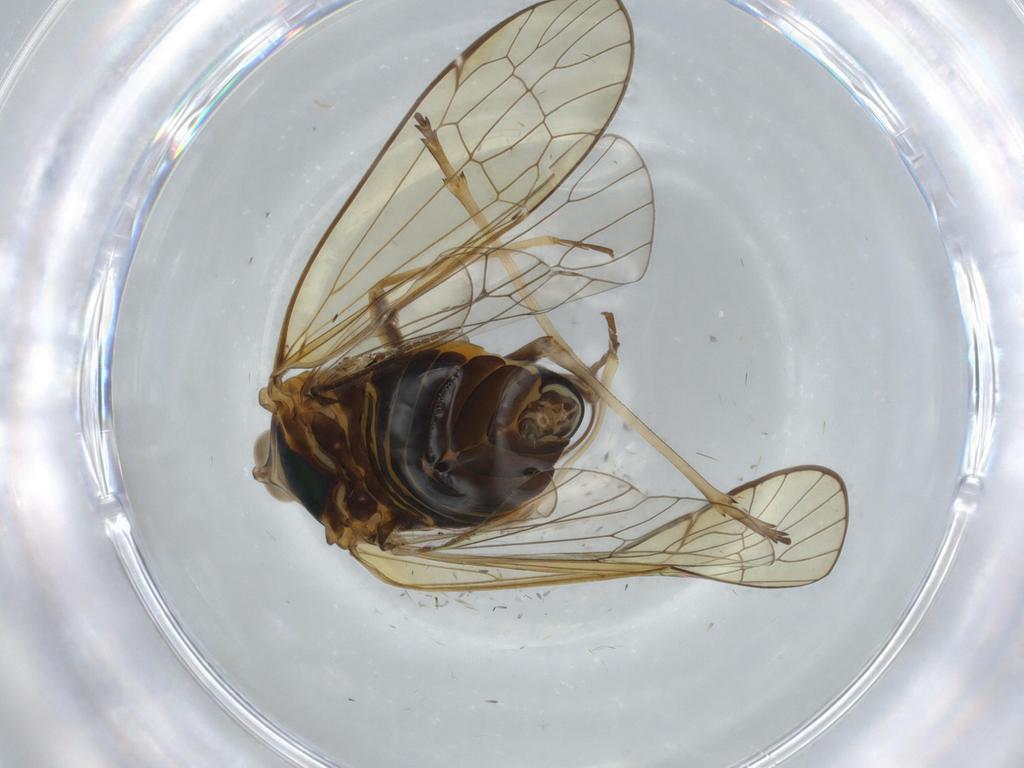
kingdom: Animalia
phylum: Arthropoda
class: Insecta
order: Hemiptera
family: Kinnaridae
